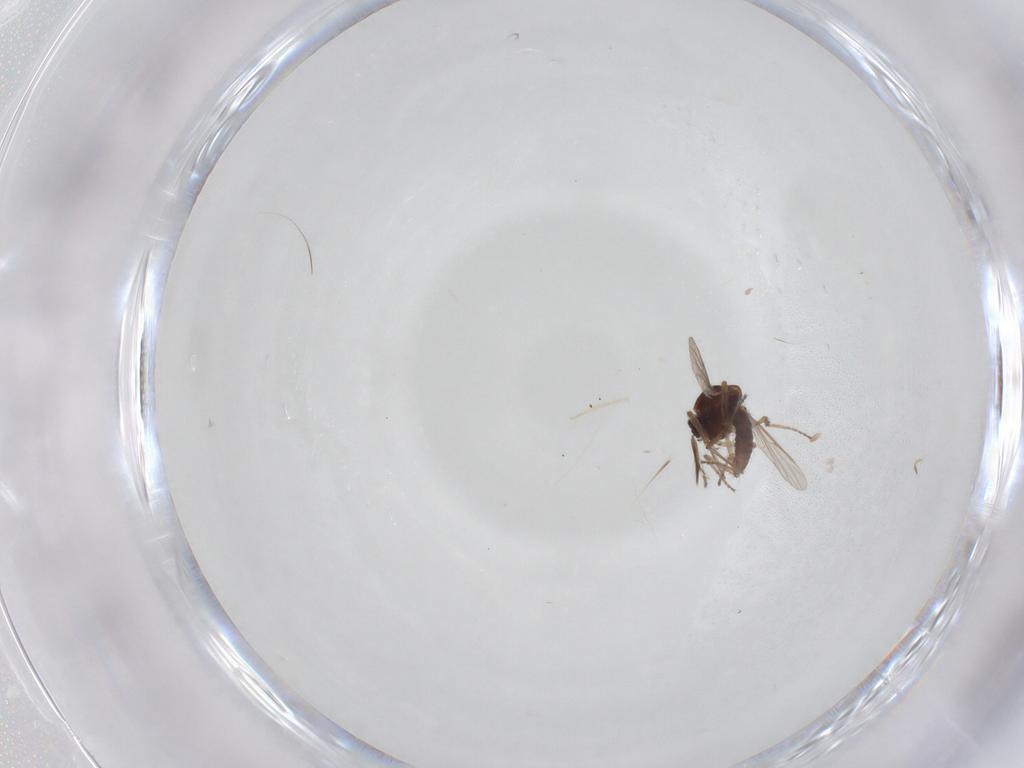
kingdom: Animalia
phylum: Arthropoda
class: Insecta
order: Diptera
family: Ceratopogonidae
